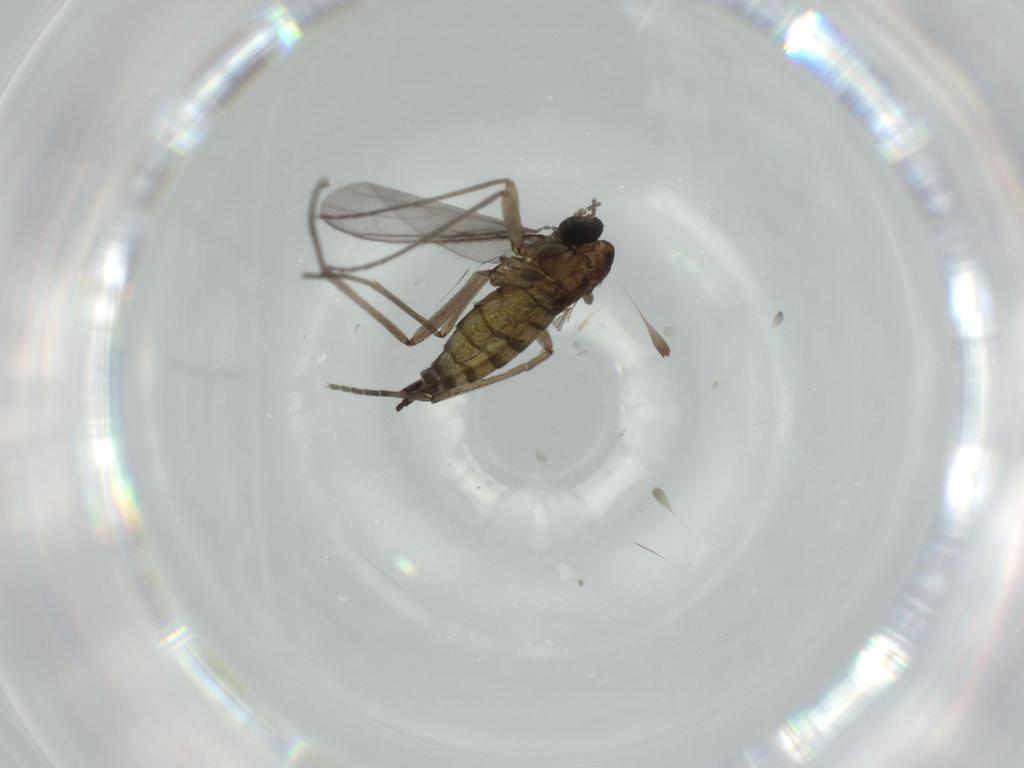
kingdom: Animalia
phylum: Arthropoda
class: Insecta
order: Diptera
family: Sciaridae
